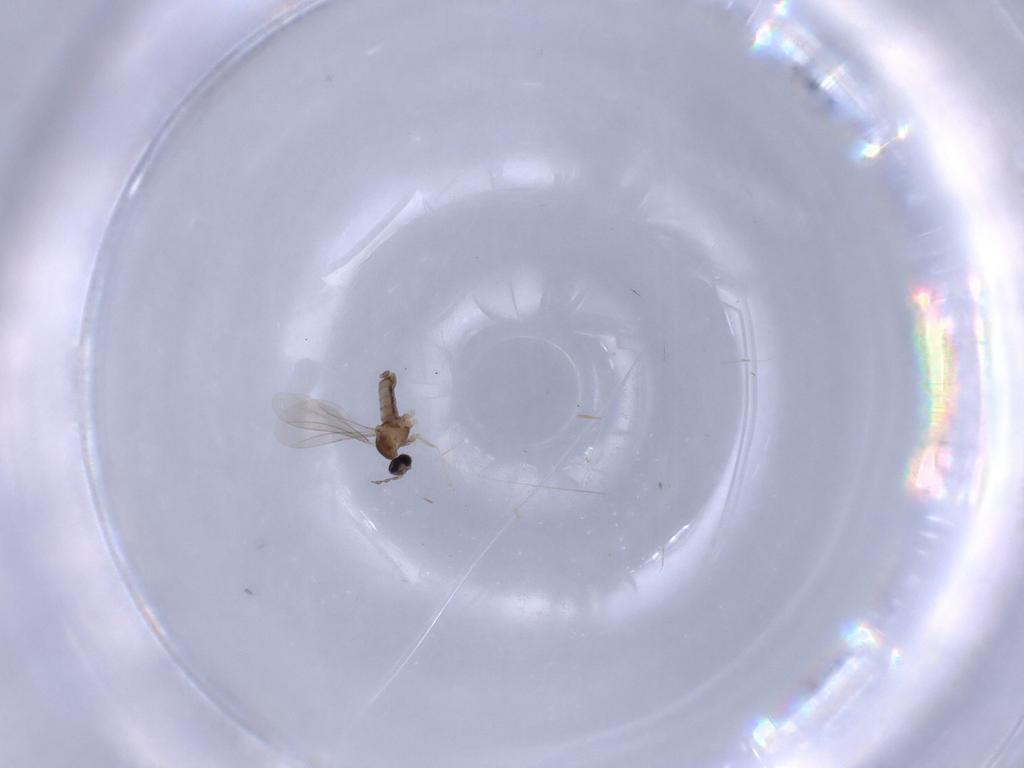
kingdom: Animalia
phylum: Arthropoda
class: Insecta
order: Diptera
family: Cecidomyiidae
